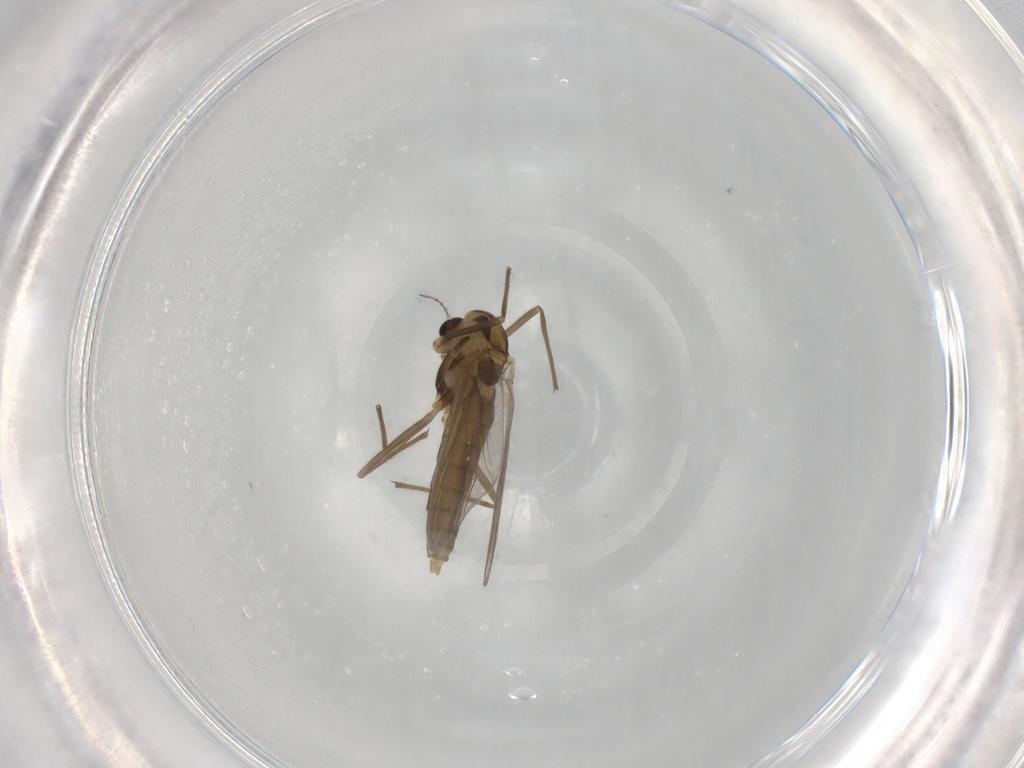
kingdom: Animalia
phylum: Arthropoda
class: Insecta
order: Diptera
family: Chironomidae
